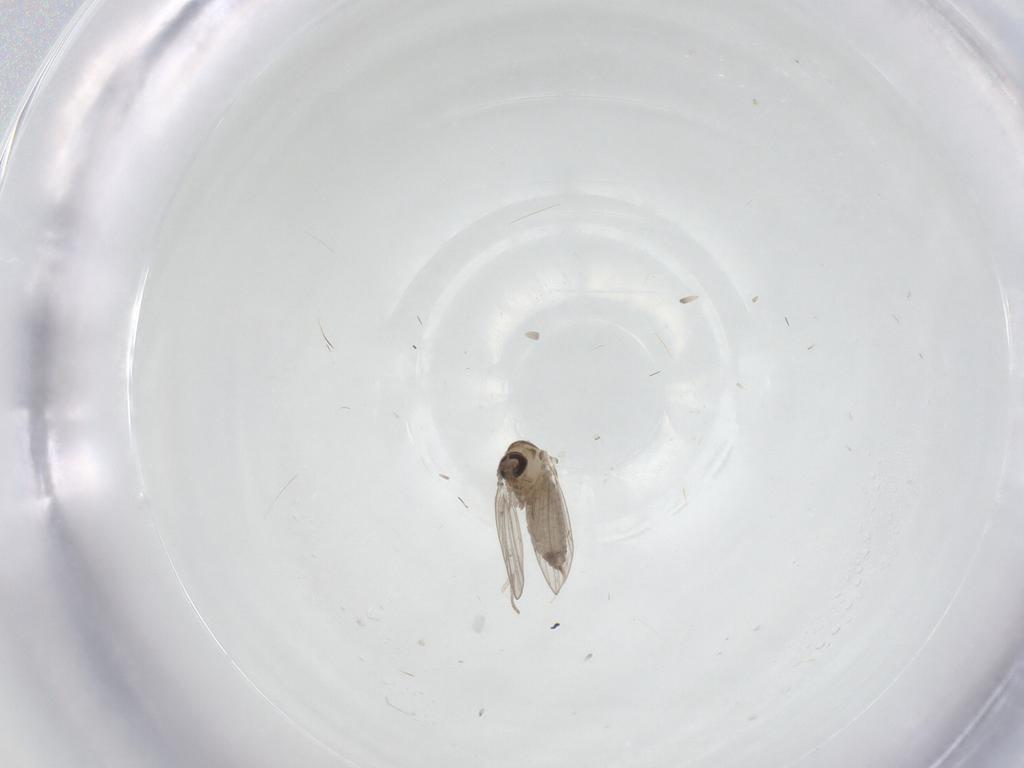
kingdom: Animalia
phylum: Arthropoda
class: Insecta
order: Diptera
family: Psychodidae
